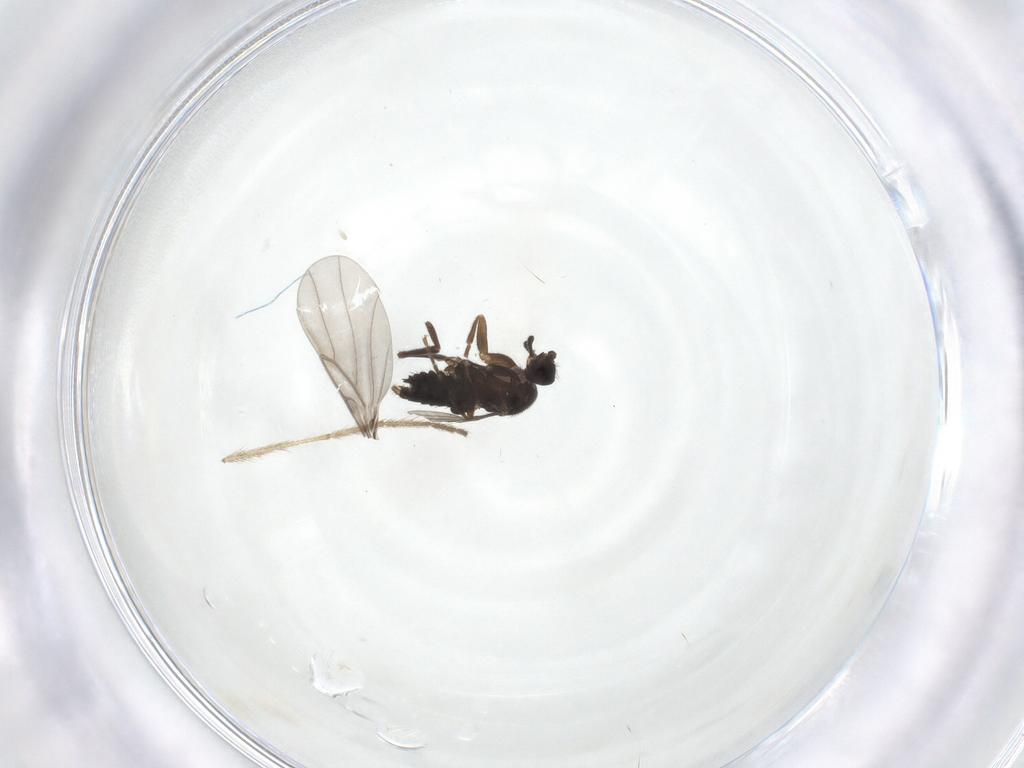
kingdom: Animalia
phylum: Arthropoda
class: Insecta
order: Diptera
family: Chironomidae
